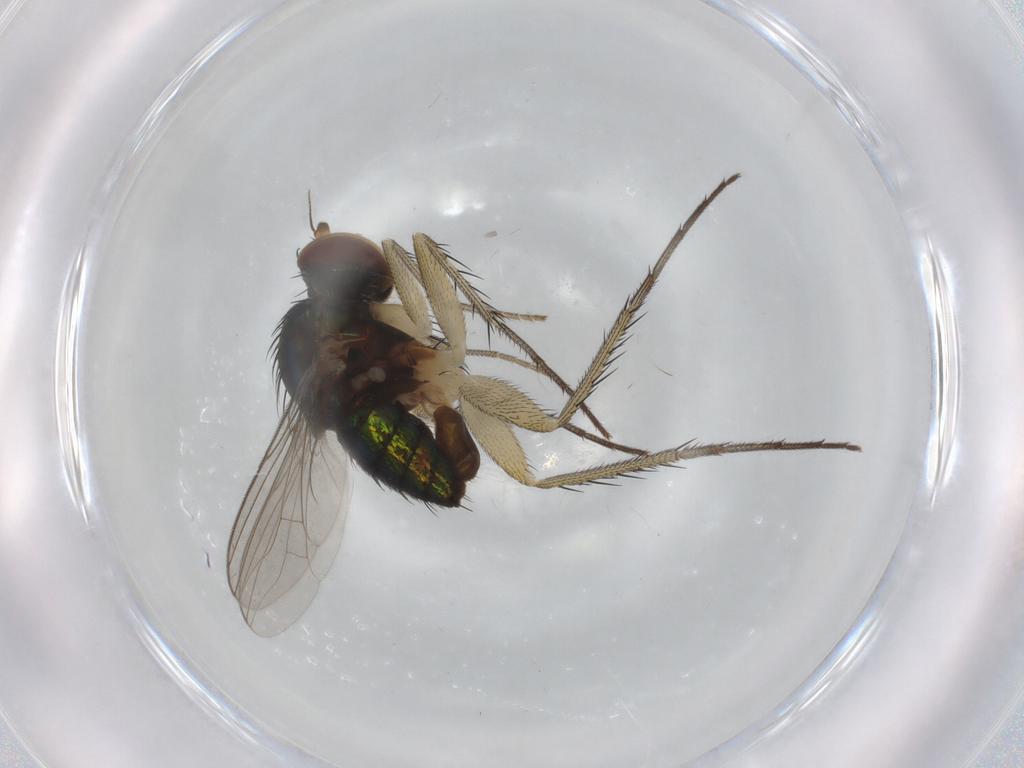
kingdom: Animalia
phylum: Arthropoda
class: Insecta
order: Diptera
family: Dolichopodidae
